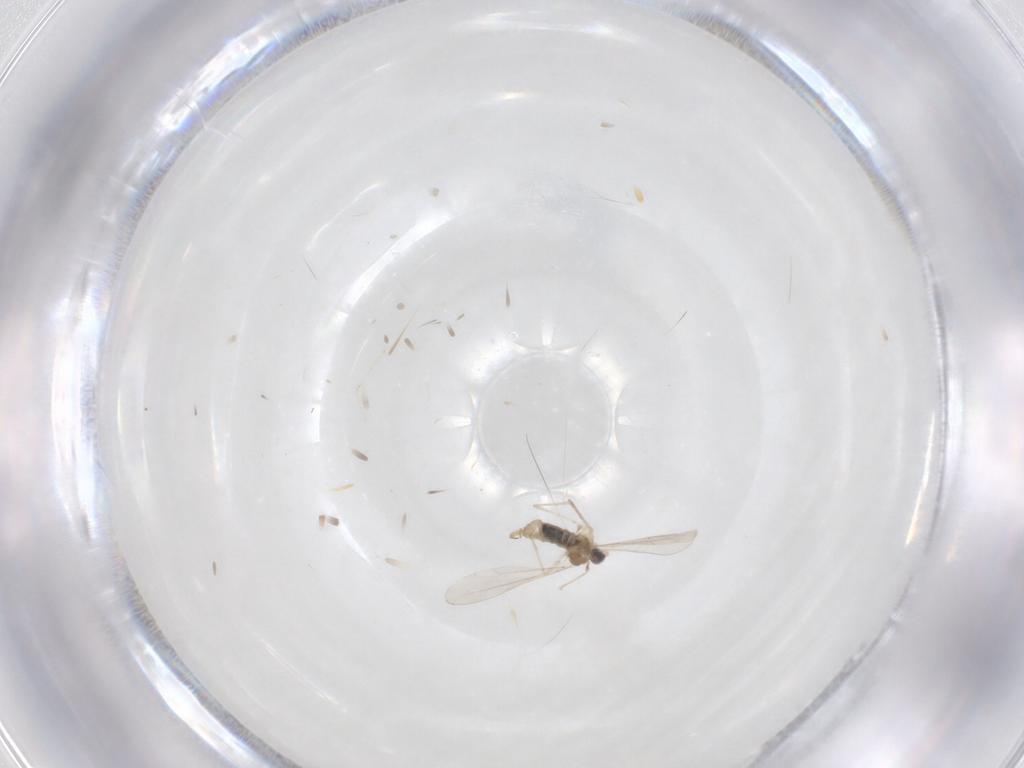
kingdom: Animalia
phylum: Arthropoda
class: Insecta
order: Diptera
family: Cecidomyiidae
